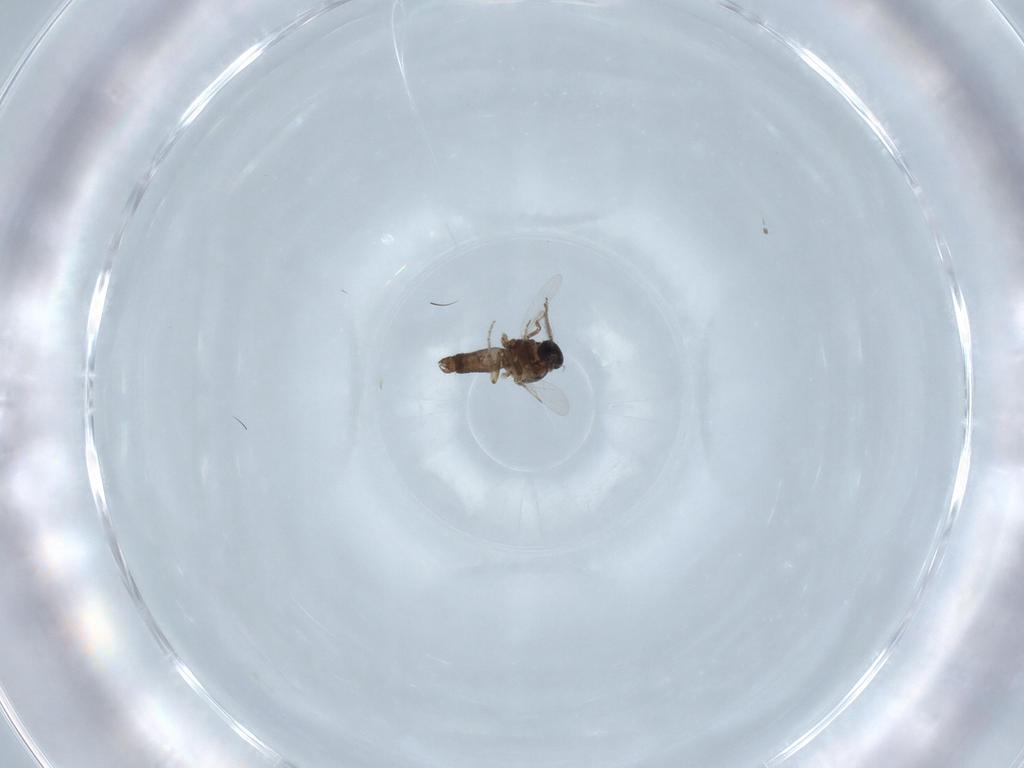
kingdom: Animalia
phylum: Arthropoda
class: Insecta
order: Diptera
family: Ceratopogonidae
